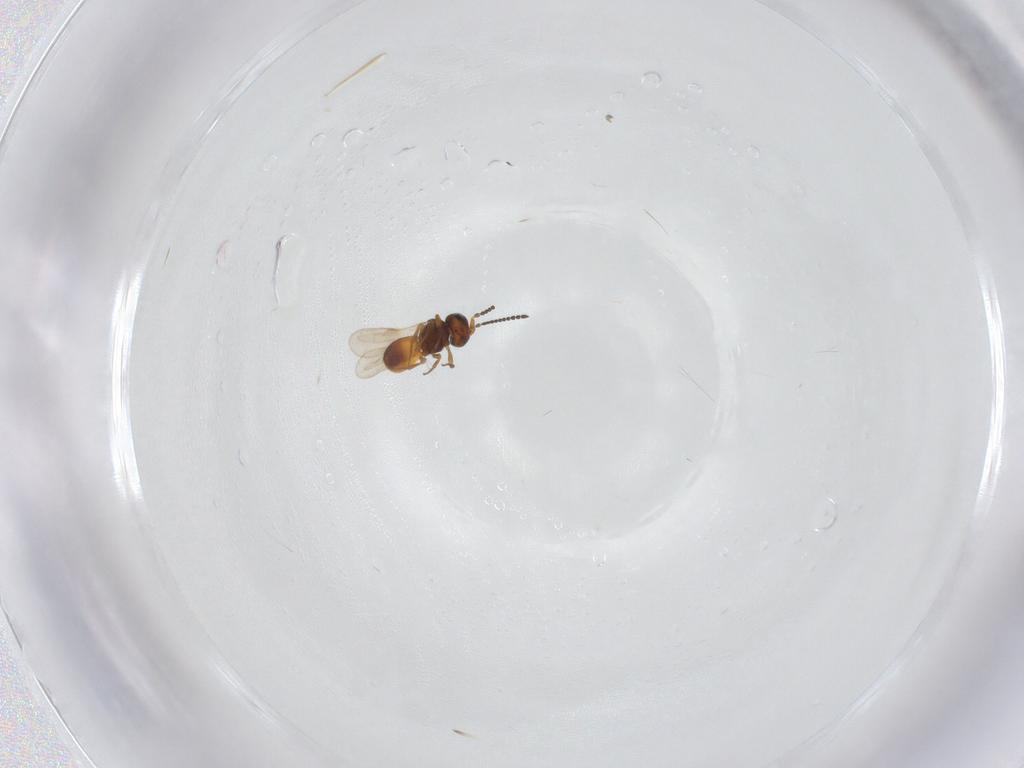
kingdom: Animalia
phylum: Arthropoda
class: Insecta
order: Hymenoptera
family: Scelionidae
